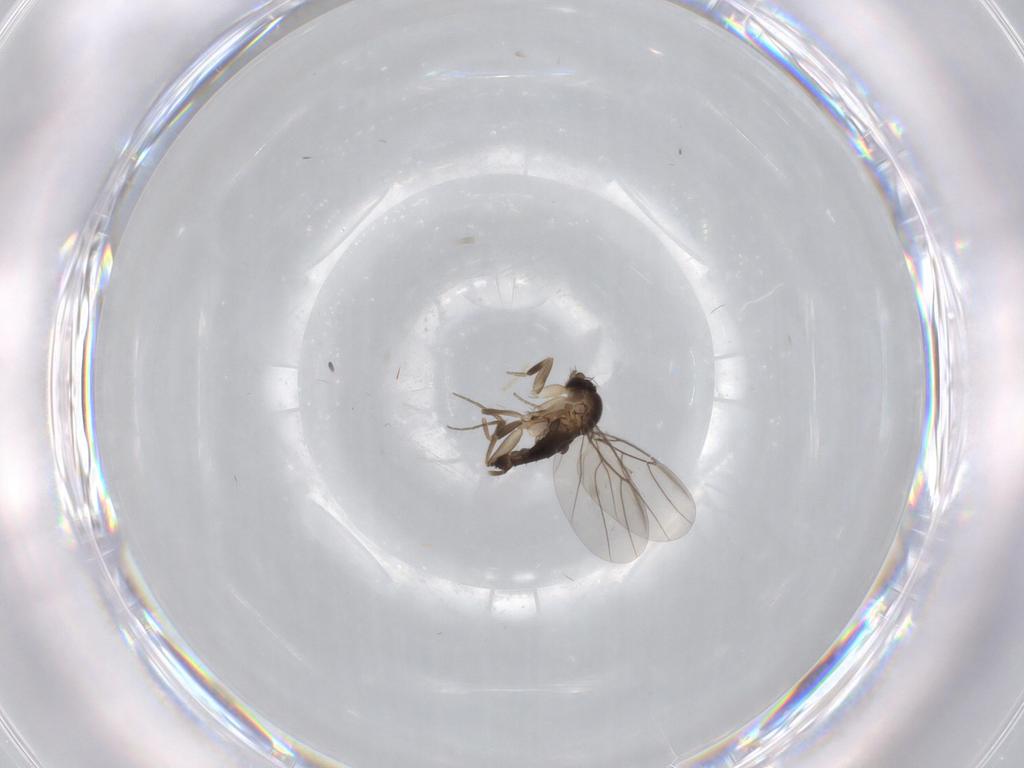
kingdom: Animalia
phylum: Arthropoda
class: Insecta
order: Diptera
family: Phoridae
